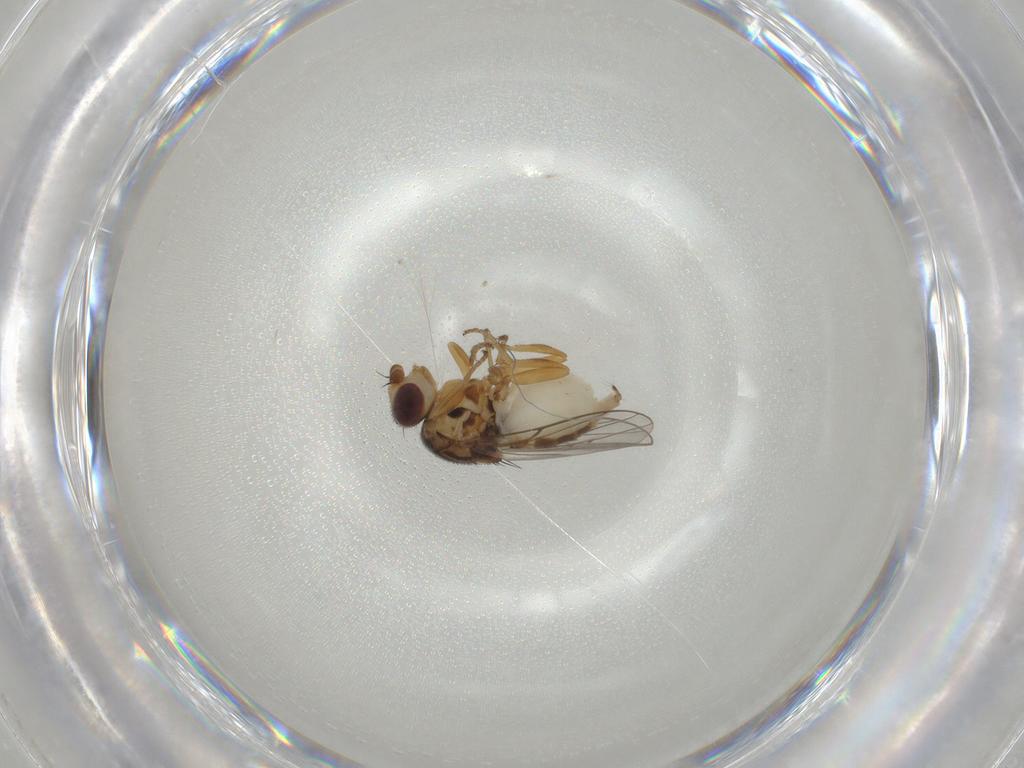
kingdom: Animalia
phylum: Arthropoda
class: Insecta
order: Diptera
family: Chloropidae
